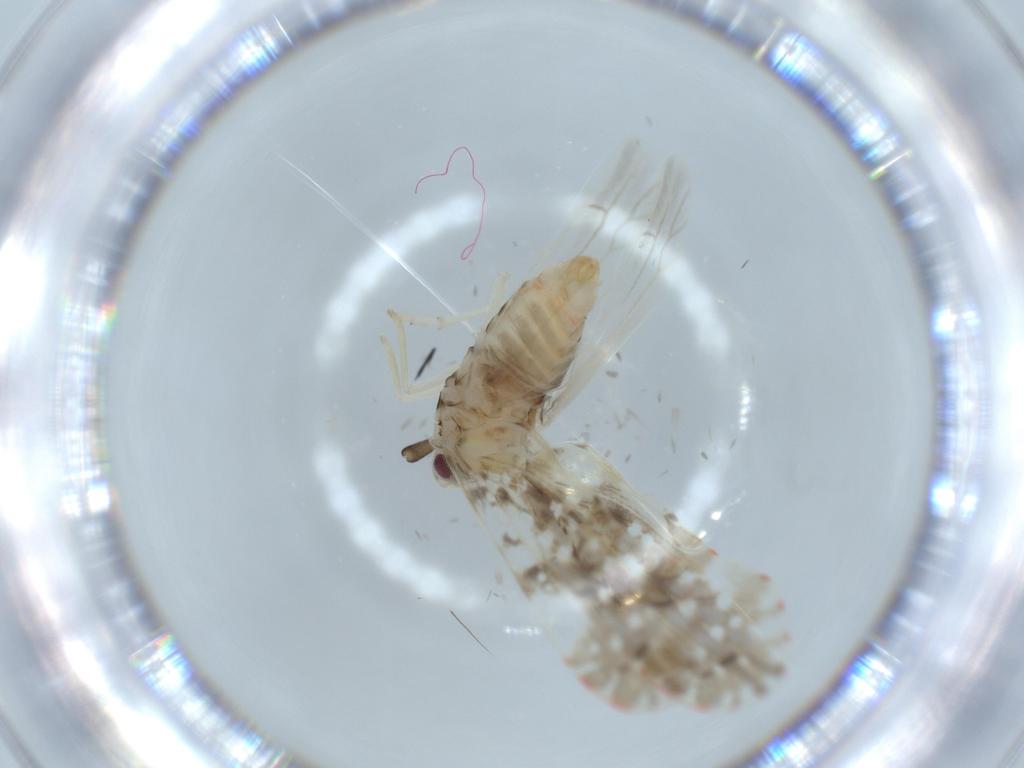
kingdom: Animalia
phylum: Arthropoda
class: Insecta
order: Hemiptera
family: Derbidae
